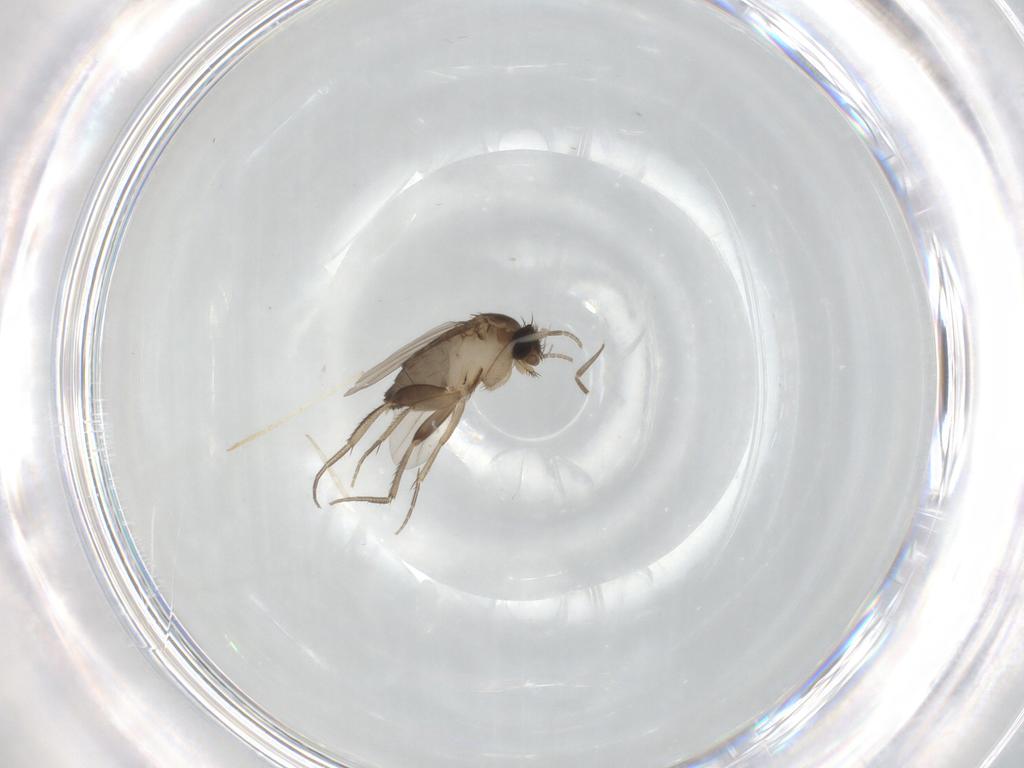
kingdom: Animalia
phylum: Arthropoda
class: Insecta
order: Diptera
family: Phoridae
